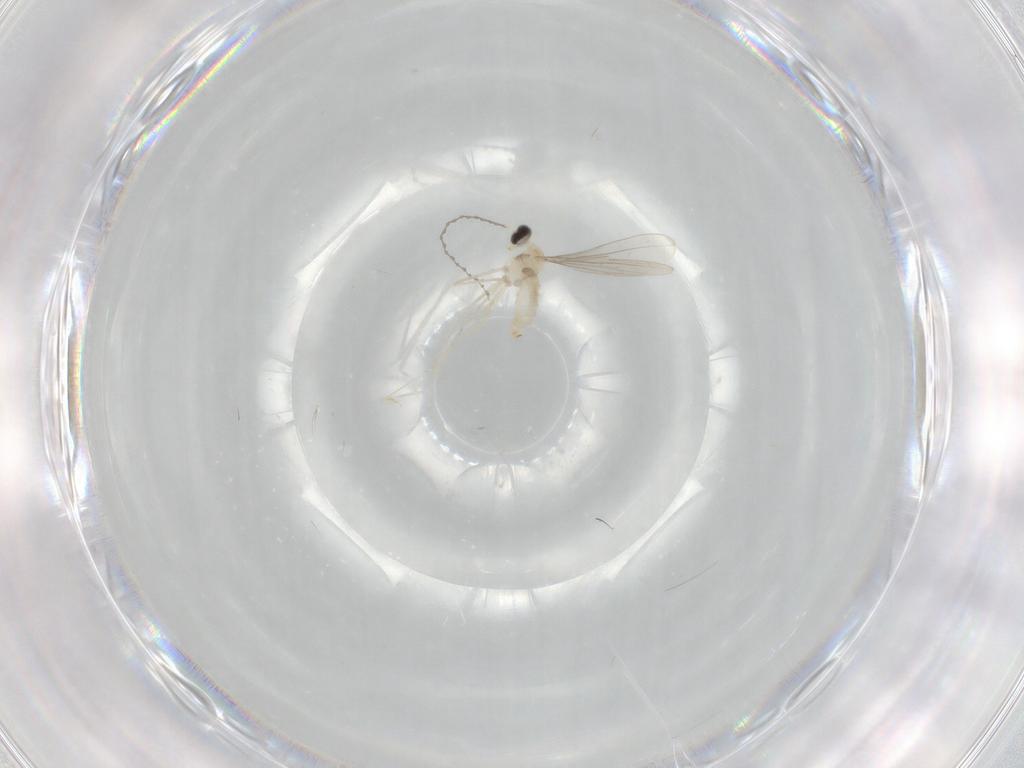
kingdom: Animalia
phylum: Arthropoda
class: Insecta
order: Diptera
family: Cecidomyiidae
